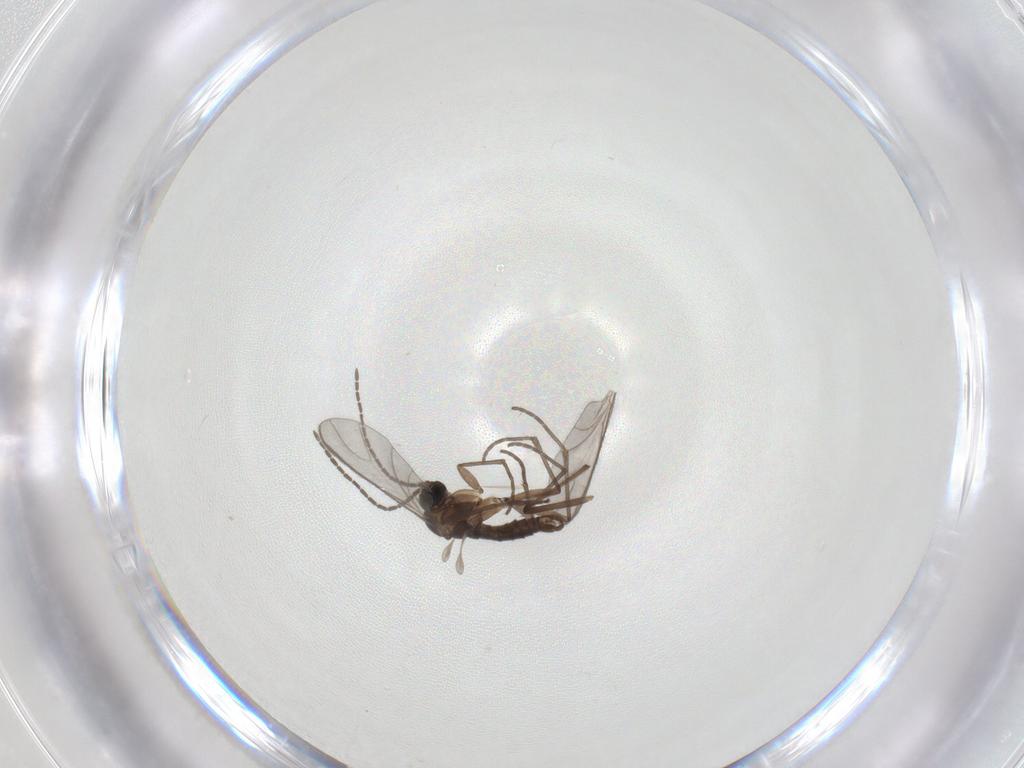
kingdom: Animalia
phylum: Arthropoda
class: Insecta
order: Diptera
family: Sciaridae
